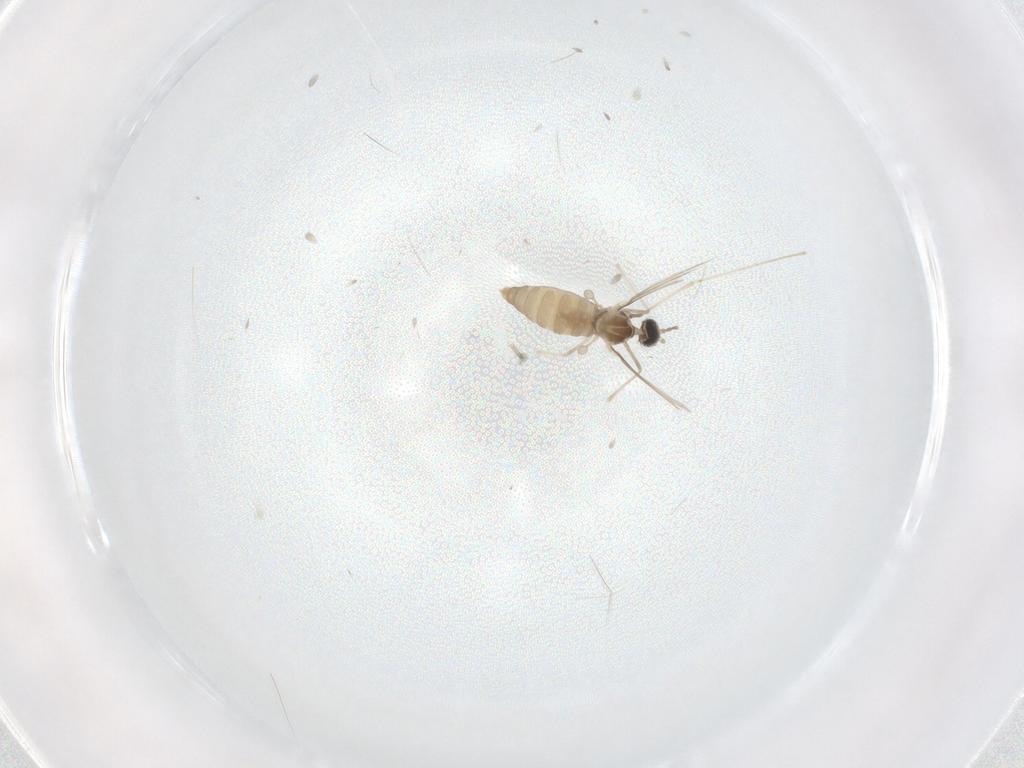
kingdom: Animalia
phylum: Arthropoda
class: Insecta
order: Diptera
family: Cecidomyiidae
